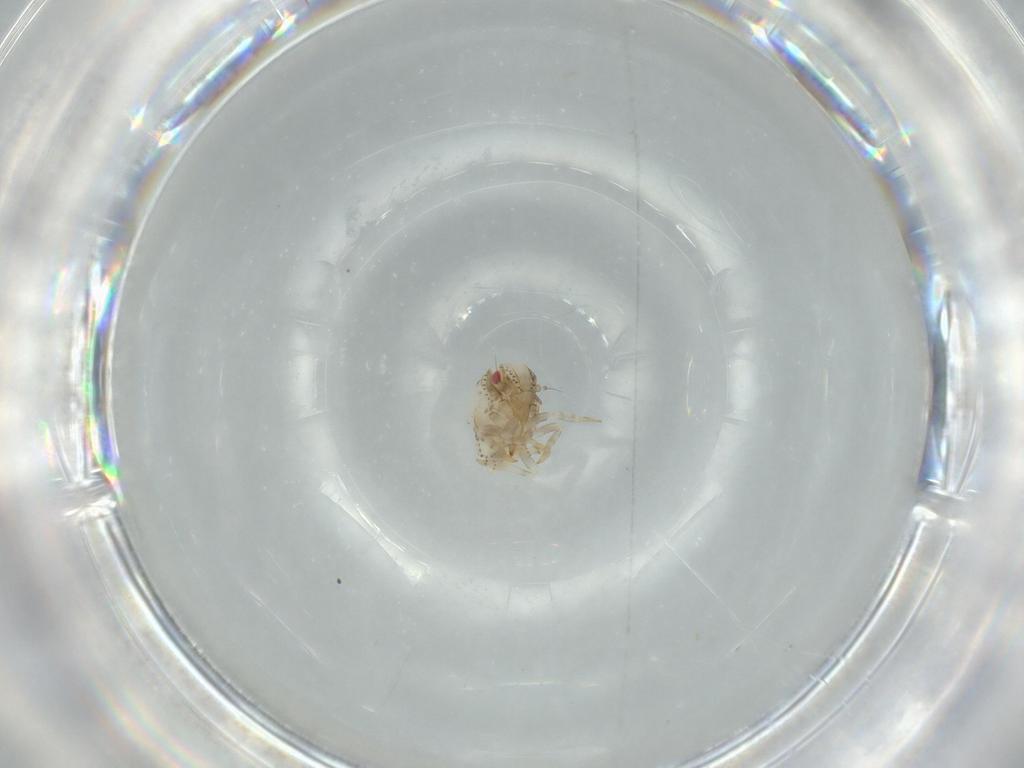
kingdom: Animalia
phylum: Arthropoda
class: Insecta
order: Hemiptera
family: Acanaloniidae
